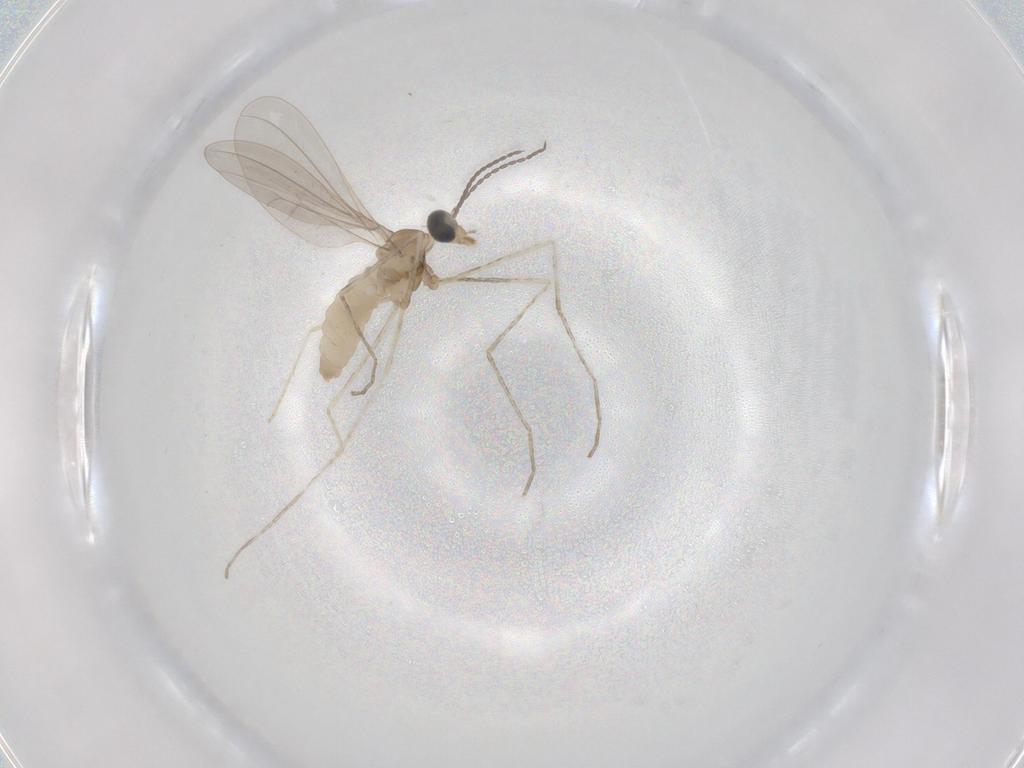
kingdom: Animalia
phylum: Arthropoda
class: Insecta
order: Diptera
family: Cecidomyiidae
